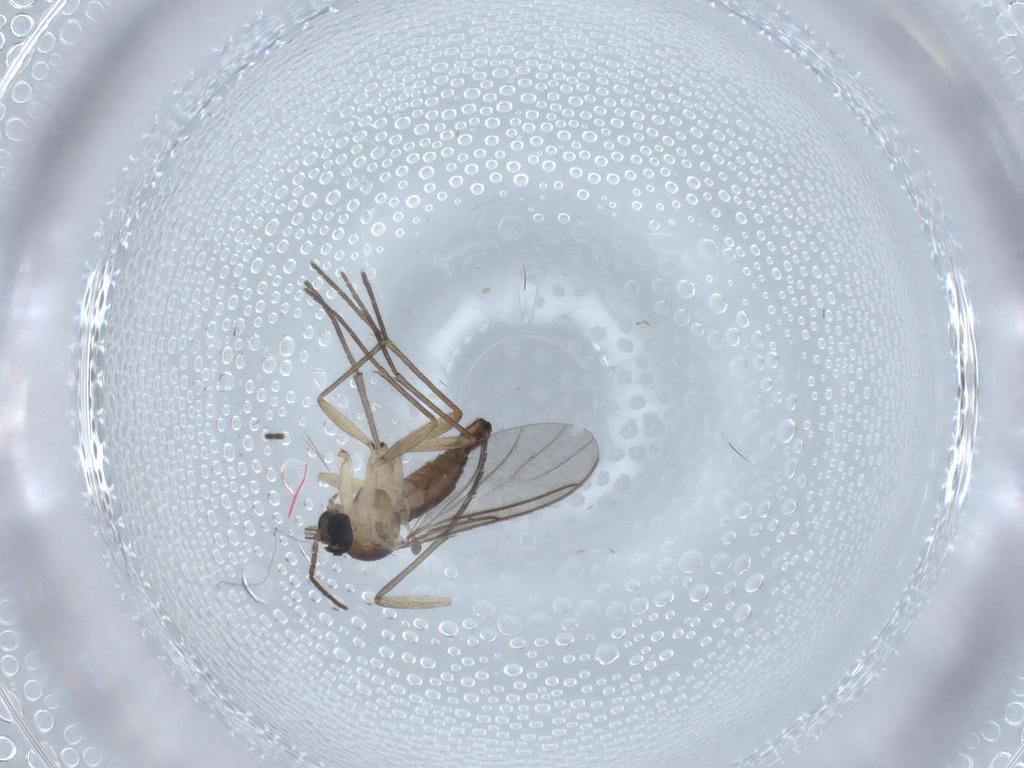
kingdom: Animalia
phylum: Arthropoda
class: Insecta
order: Diptera
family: Sciaridae
